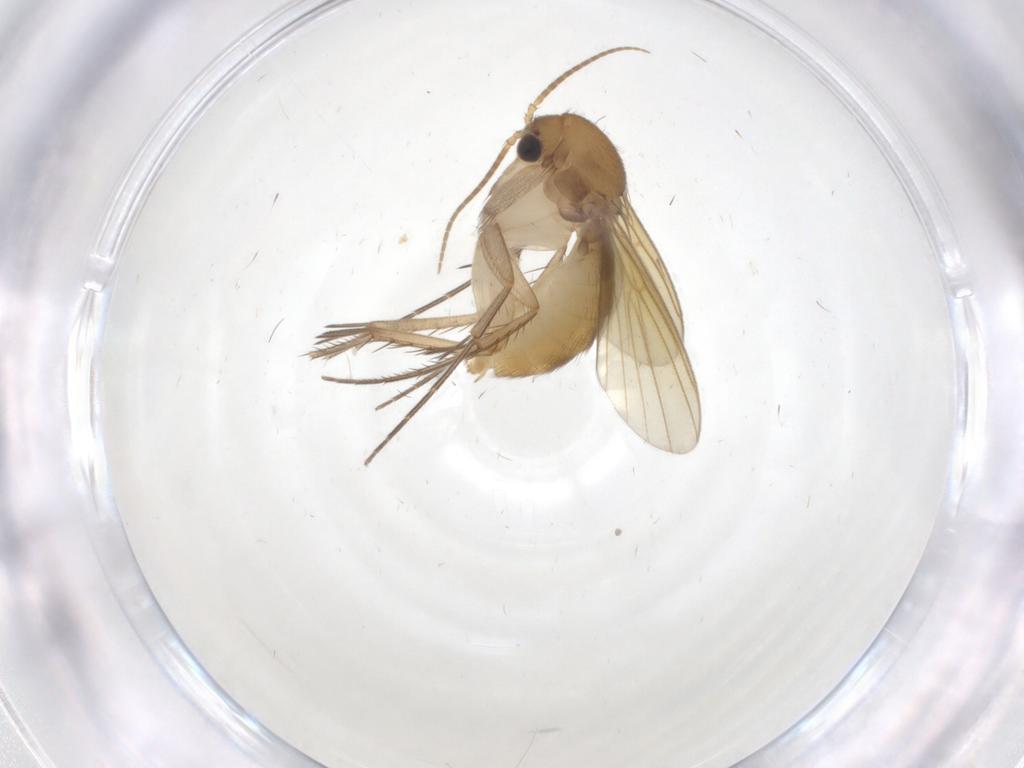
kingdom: Animalia
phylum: Arthropoda
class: Insecta
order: Diptera
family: Mycetophilidae
